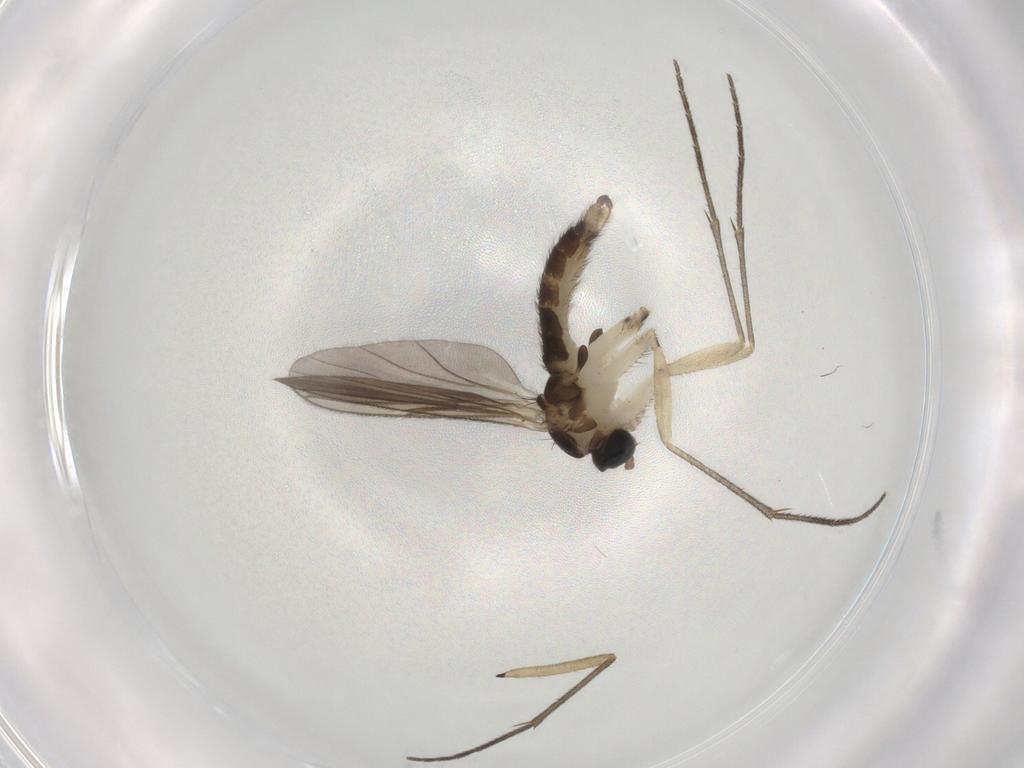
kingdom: Animalia
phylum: Arthropoda
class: Insecta
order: Diptera
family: Sciaridae
